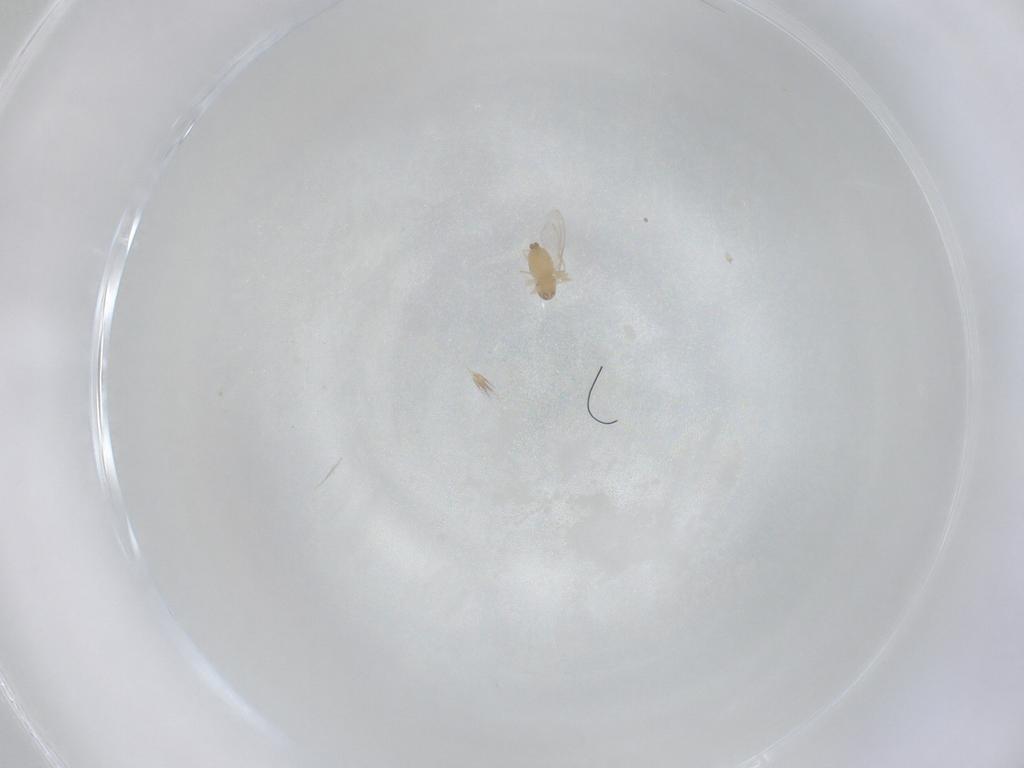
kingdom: Animalia
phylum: Arthropoda
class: Insecta
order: Diptera
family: Cecidomyiidae
